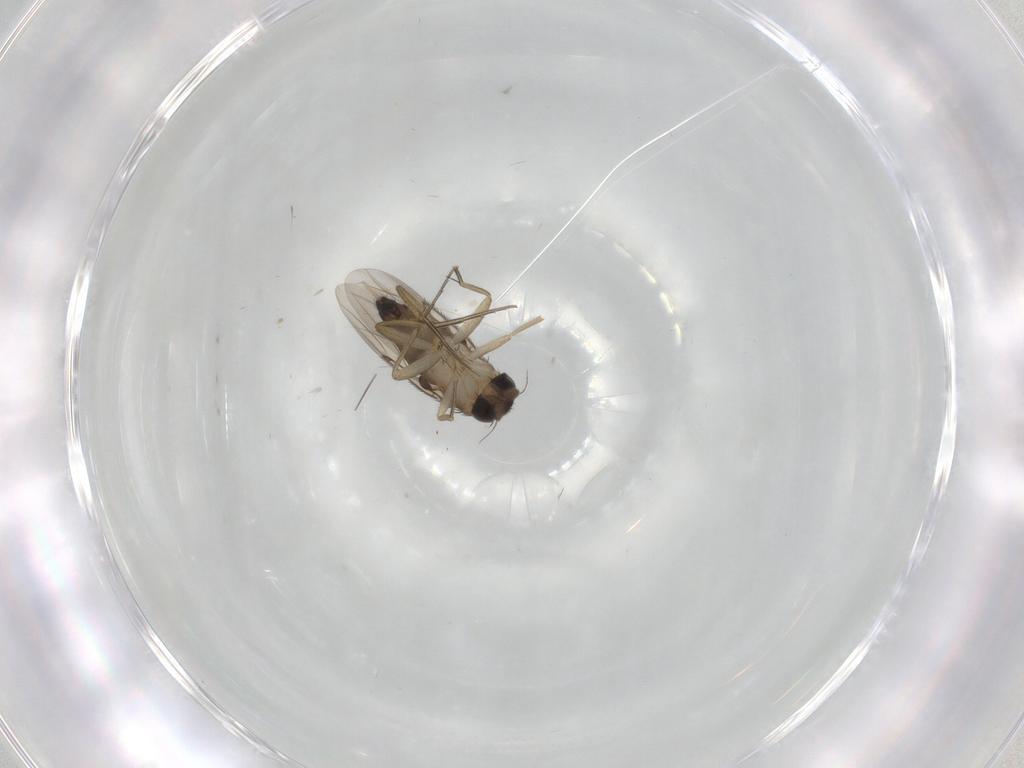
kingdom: Animalia
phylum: Arthropoda
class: Insecta
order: Diptera
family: Phoridae
